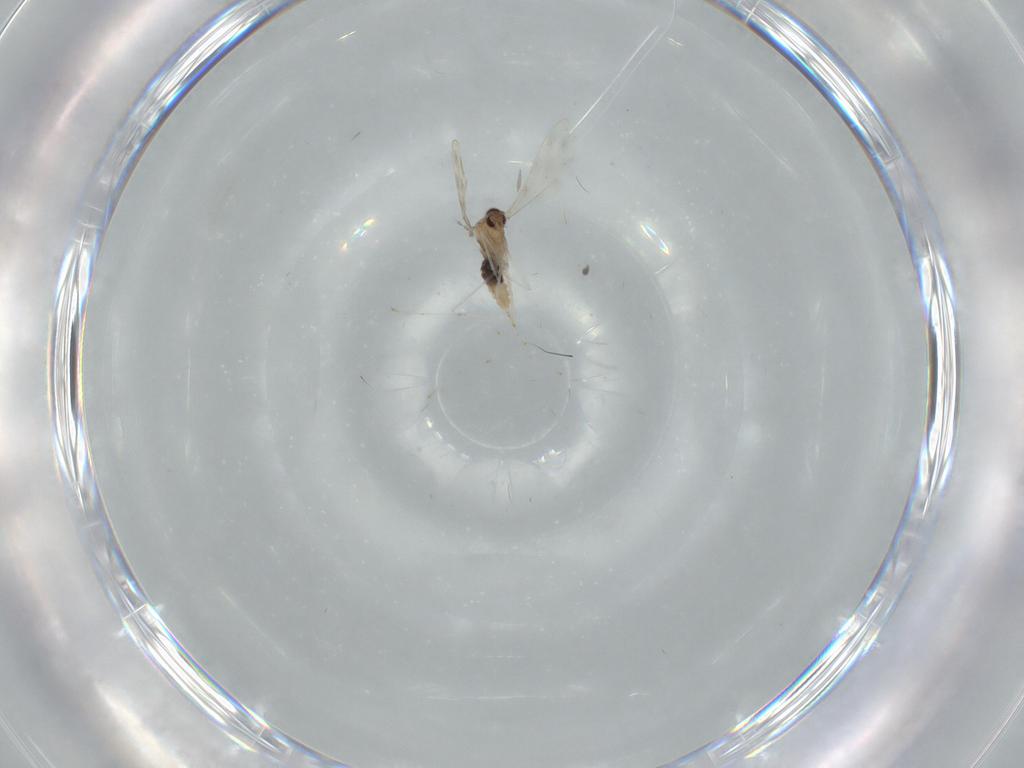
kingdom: Animalia
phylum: Arthropoda
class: Insecta
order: Diptera
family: Cecidomyiidae
